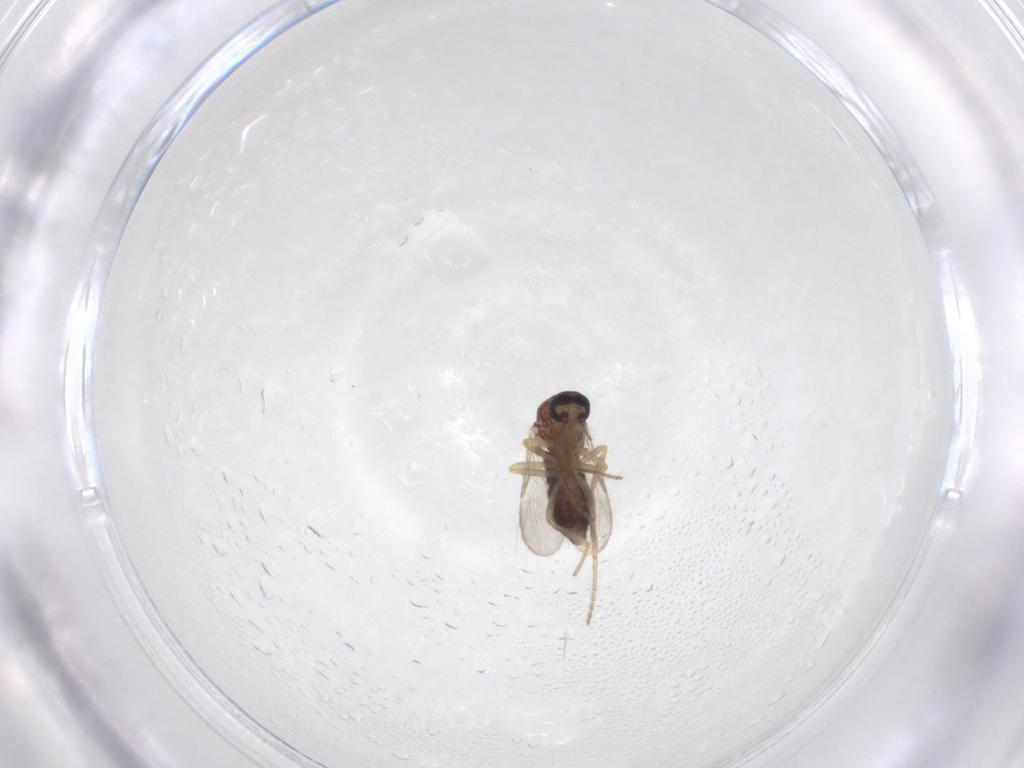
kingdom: Animalia
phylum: Arthropoda
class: Insecta
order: Diptera
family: Ceratopogonidae
